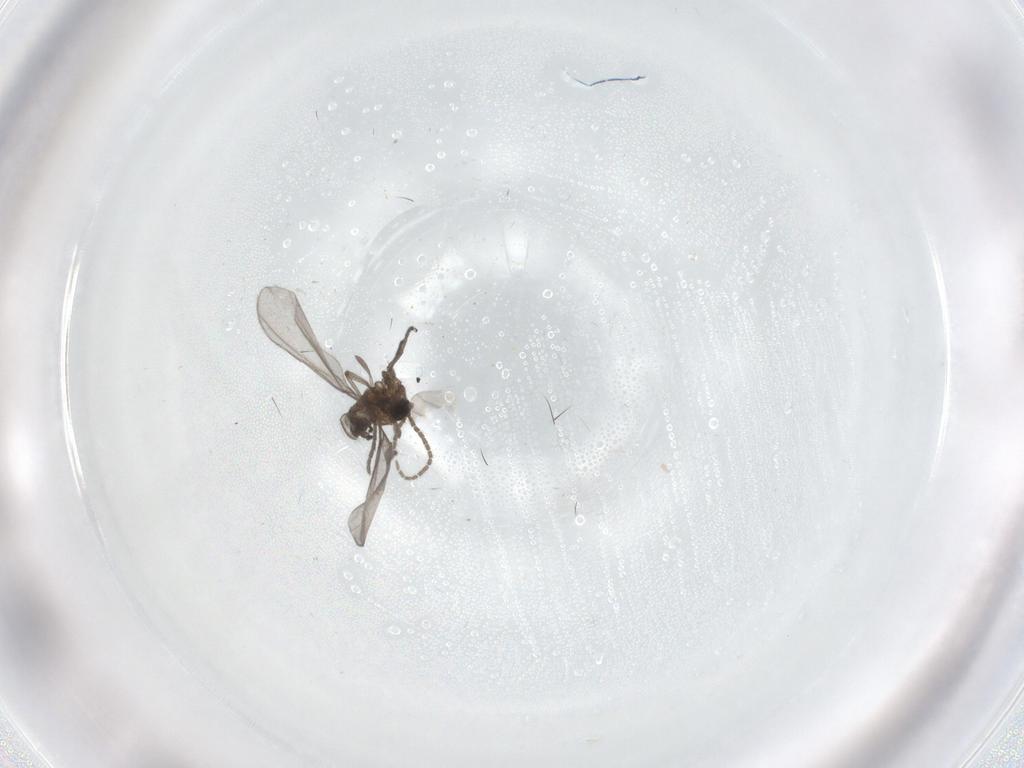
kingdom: Animalia
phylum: Arthropoda
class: Insecta
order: Diptera
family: Sciaridae
